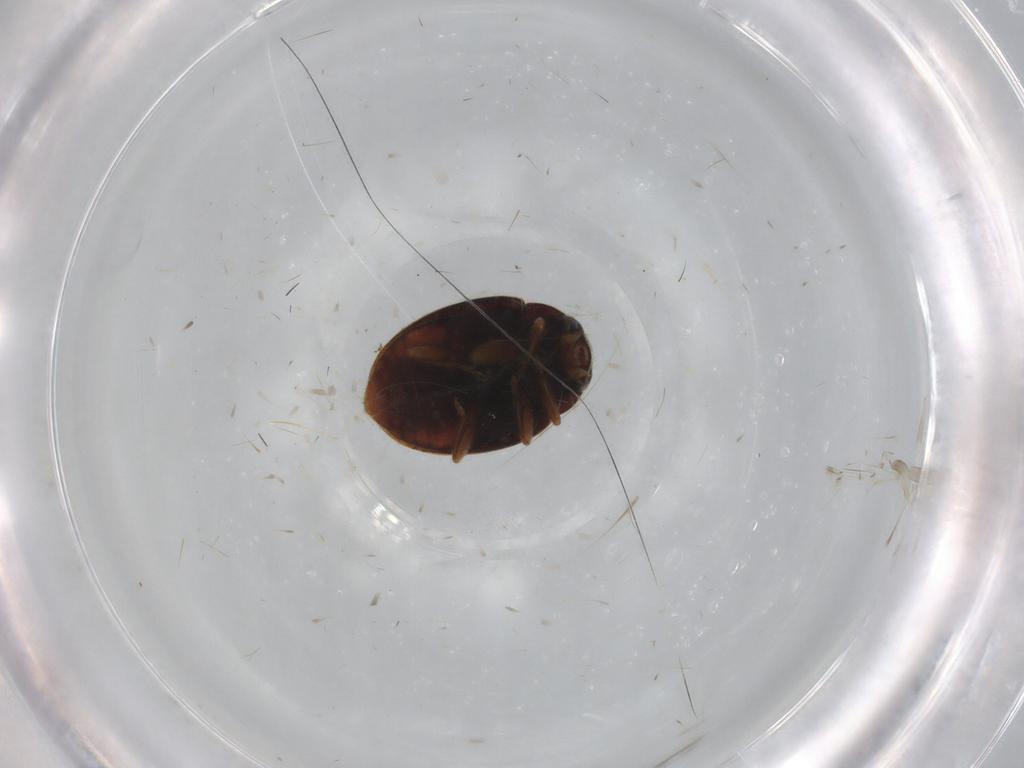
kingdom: Animalia
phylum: Arthropoda
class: Insecta
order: Coleoptera
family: Coccinellidae
